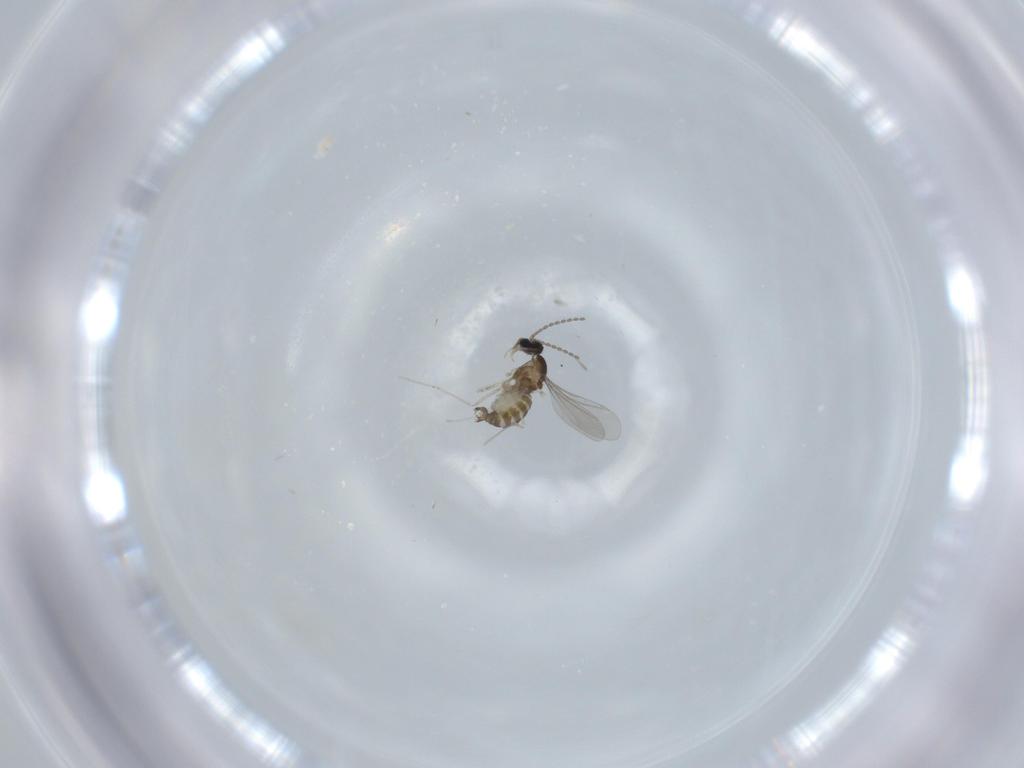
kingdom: Animalia
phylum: Arthropoda
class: Insecta
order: Diptera
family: Cecidomyiidae
